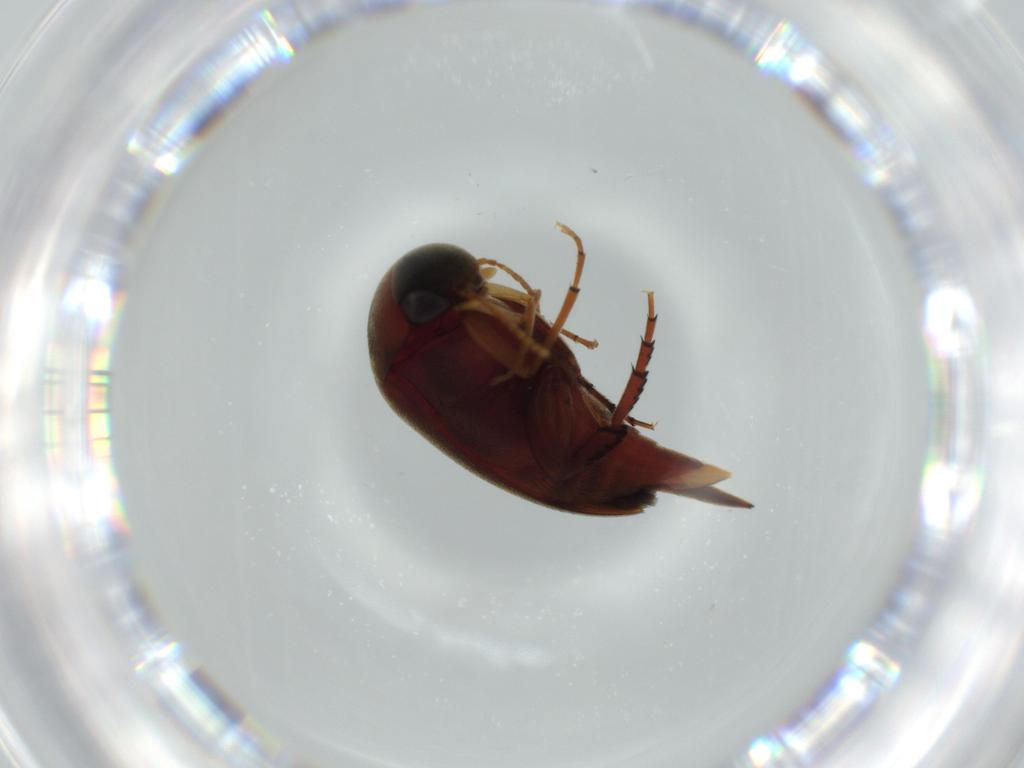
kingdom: Animalia
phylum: Arthropoda
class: Insecta
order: Coleoptera
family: Mordellidae
